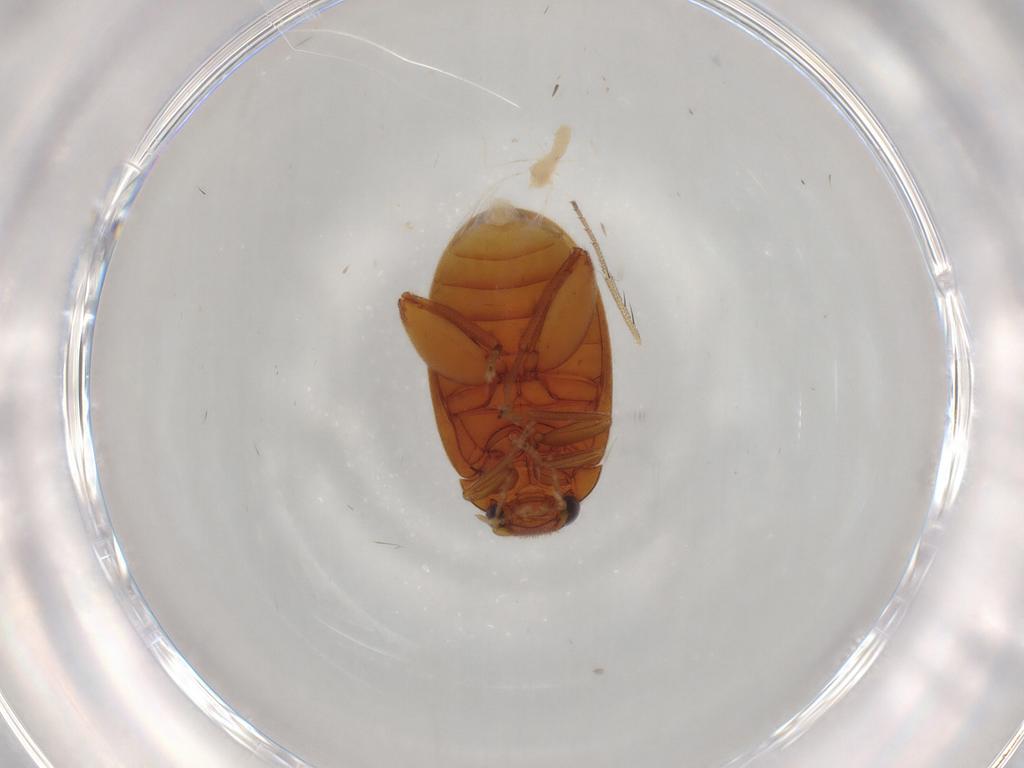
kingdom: Animalia
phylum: Arthropoda
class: Insecta
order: Coleoptera
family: Scirtidae
